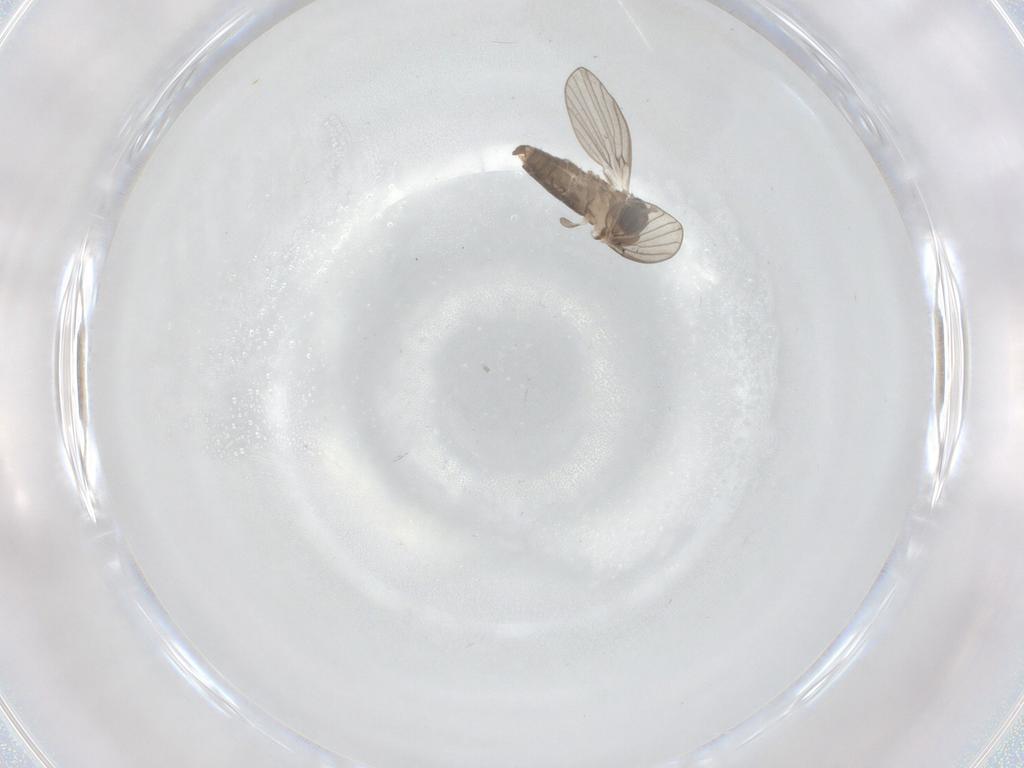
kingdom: Animalia
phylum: Arthropoda
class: Insecta
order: Diptera
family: Psychodidae
